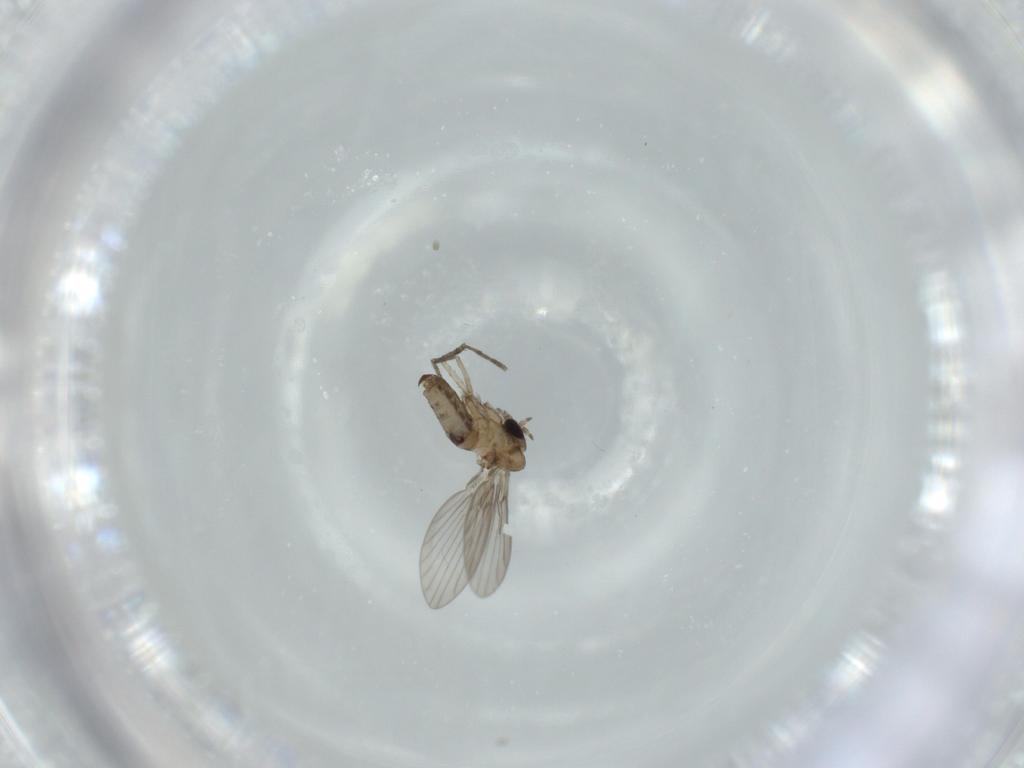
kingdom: Animalia
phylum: Arthropoda
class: Insecta
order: Diptera
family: Psychodidae
